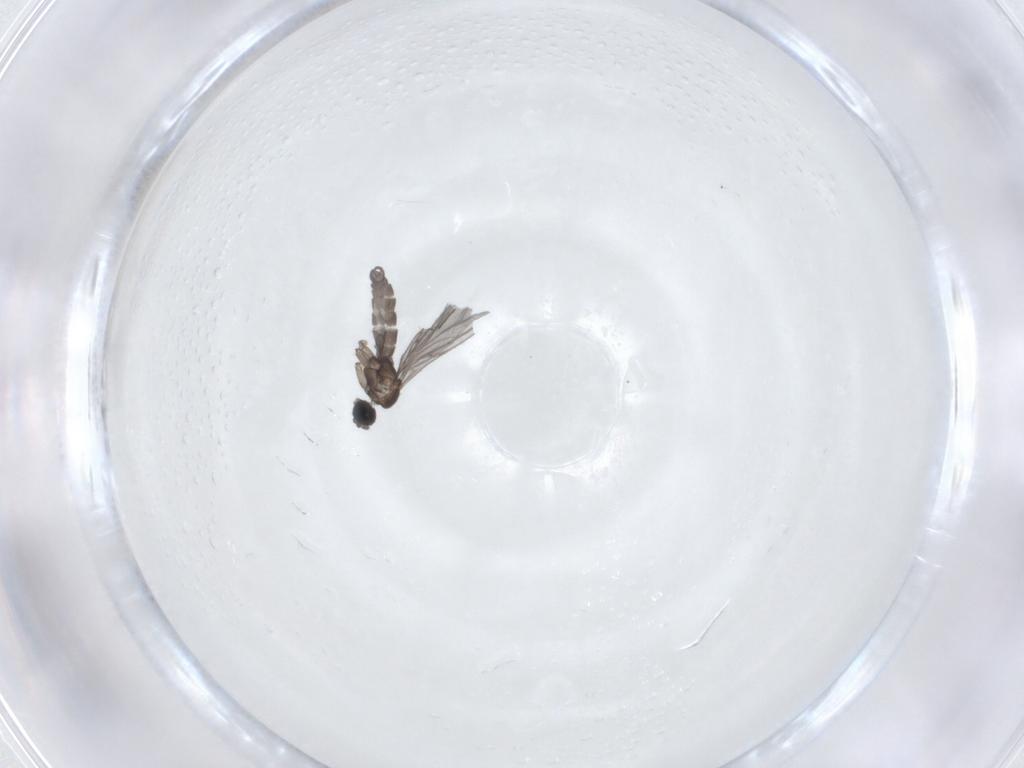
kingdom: Animalia
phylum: Arthropoda
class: Insecta
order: Diptera
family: Sciaridae
